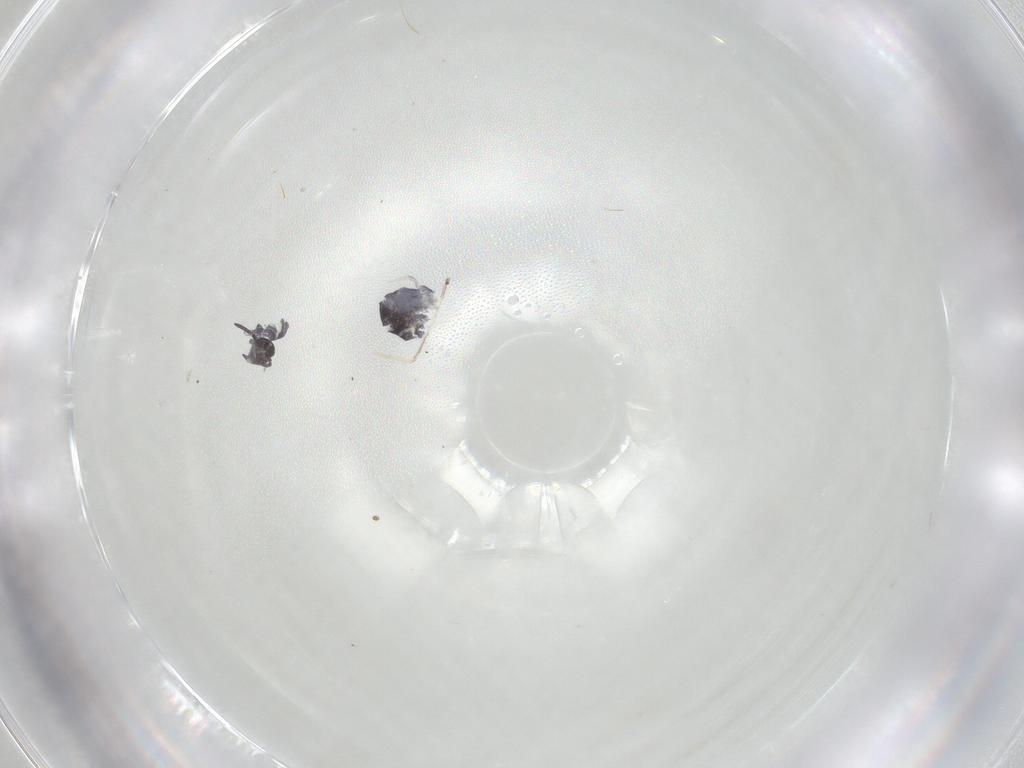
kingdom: Animalia
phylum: Arthropoda
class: Collembola
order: Symphypleona
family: Katiannidae
